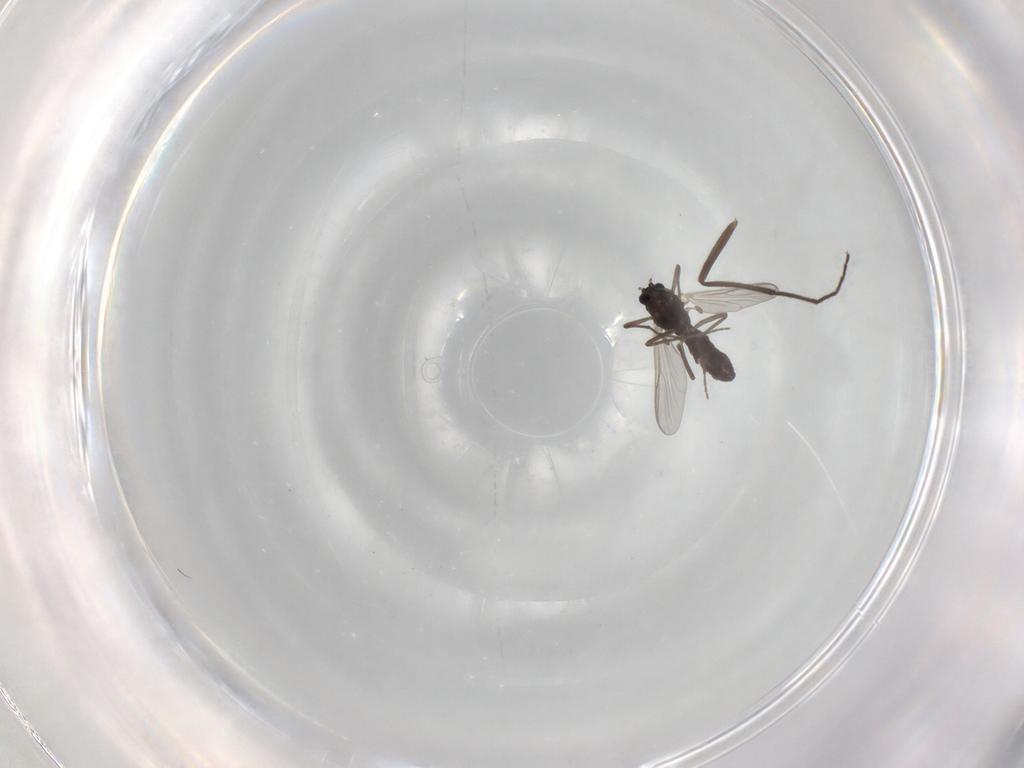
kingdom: Animalia
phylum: Arthropoda
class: Insecta
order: Diptera
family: Chironomidae
